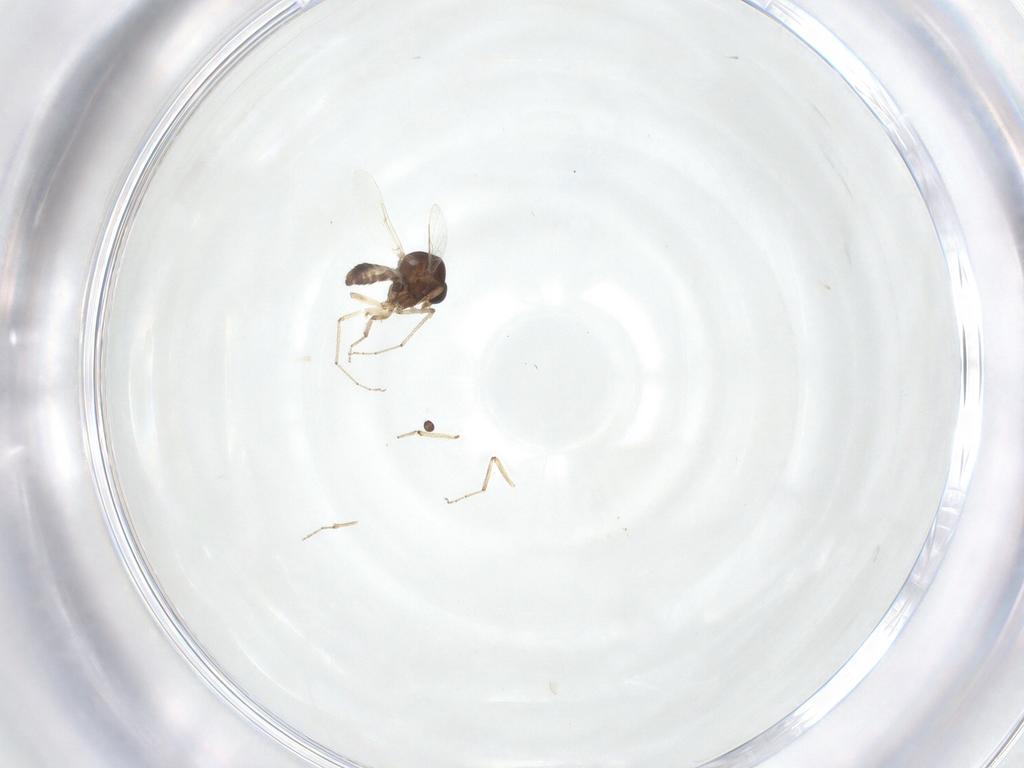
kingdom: Animalia
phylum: Arthropoda
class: Insecta
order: Diptera
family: Ceratopogonidae
